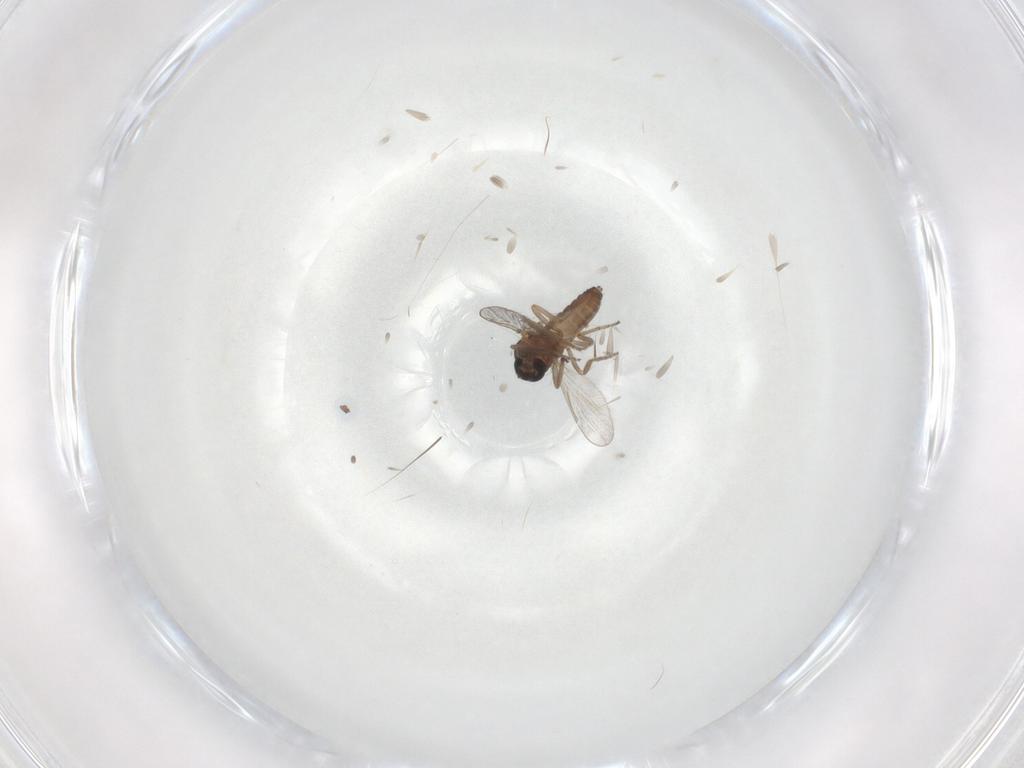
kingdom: Animalia
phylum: Arthropoda
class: Insecta
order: Diptera
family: Ceratopogonidae
